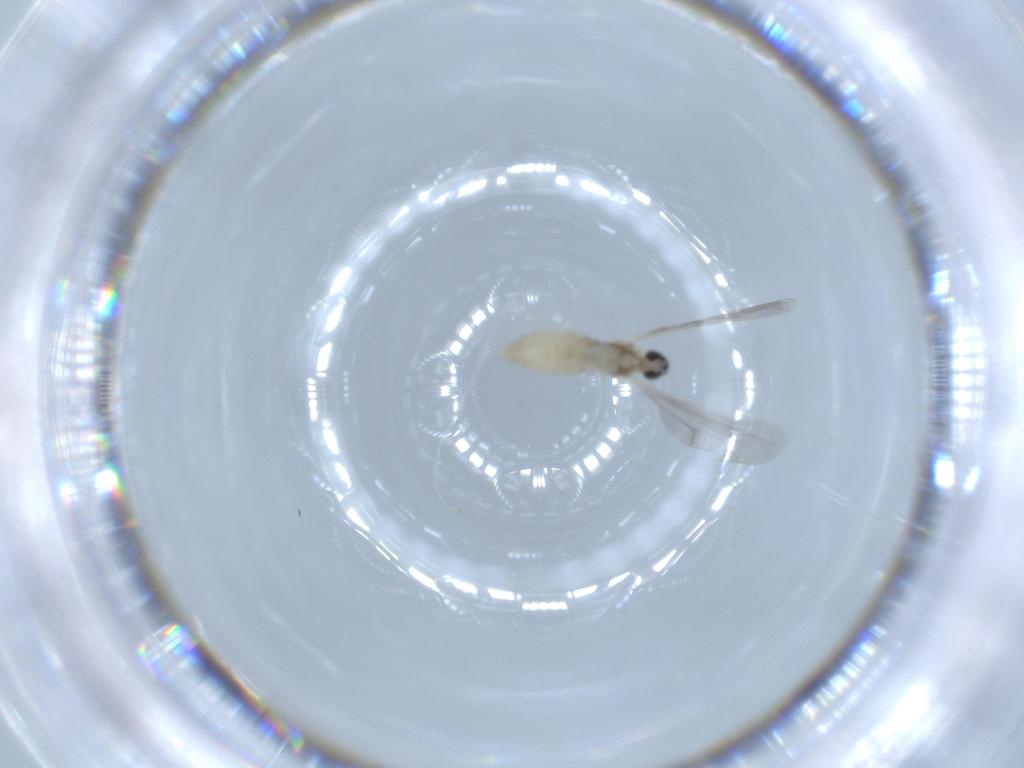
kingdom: Animalia
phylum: Arthropoda
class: Insecta
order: Diptera
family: Cecidomyiidae
